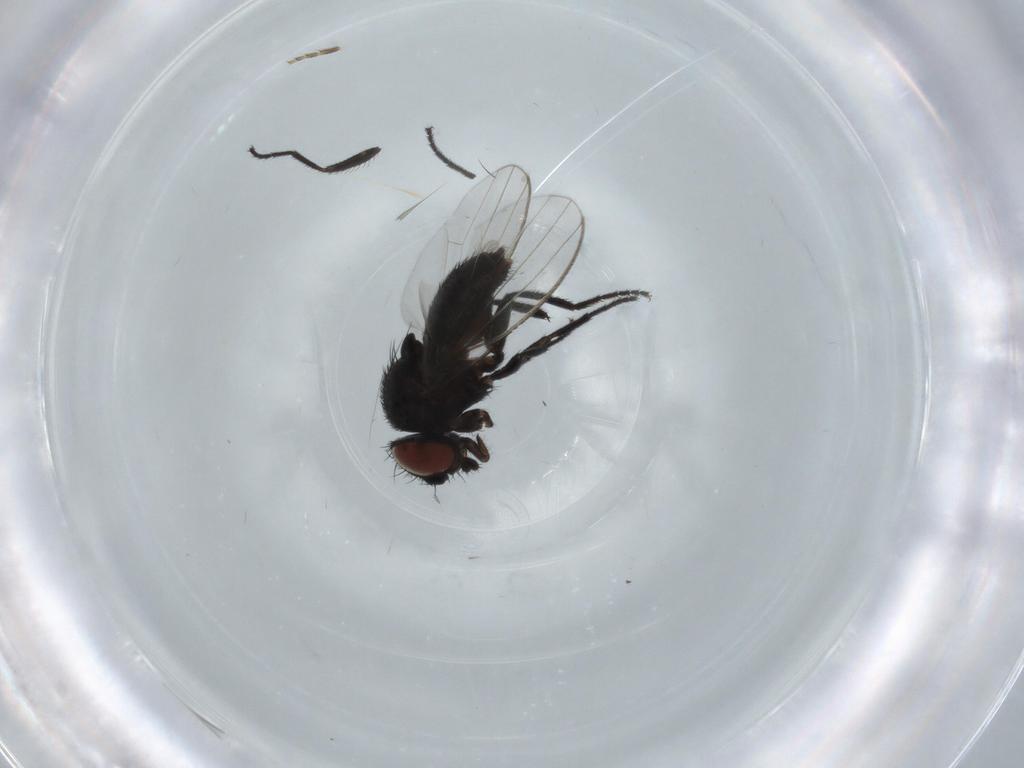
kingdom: Animalia
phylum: Arthropoda
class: Insecta
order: Diptera
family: Milichiidae
